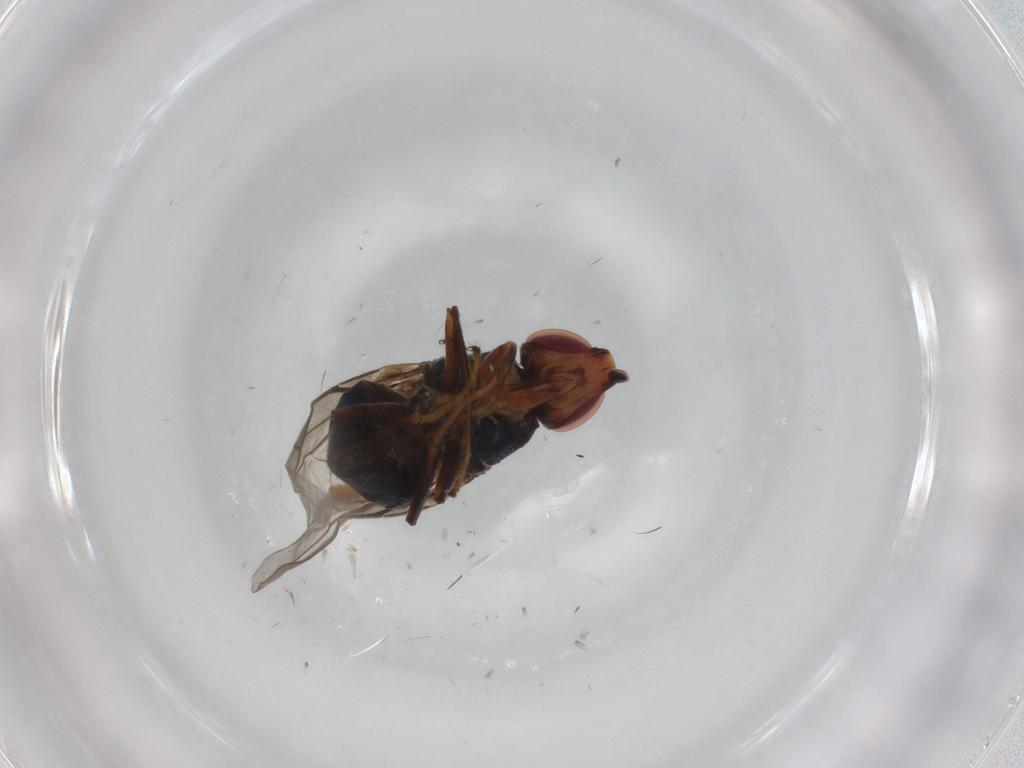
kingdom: Animalia
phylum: Arthropoda
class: Insecta
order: Diptera
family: Chloropidae
